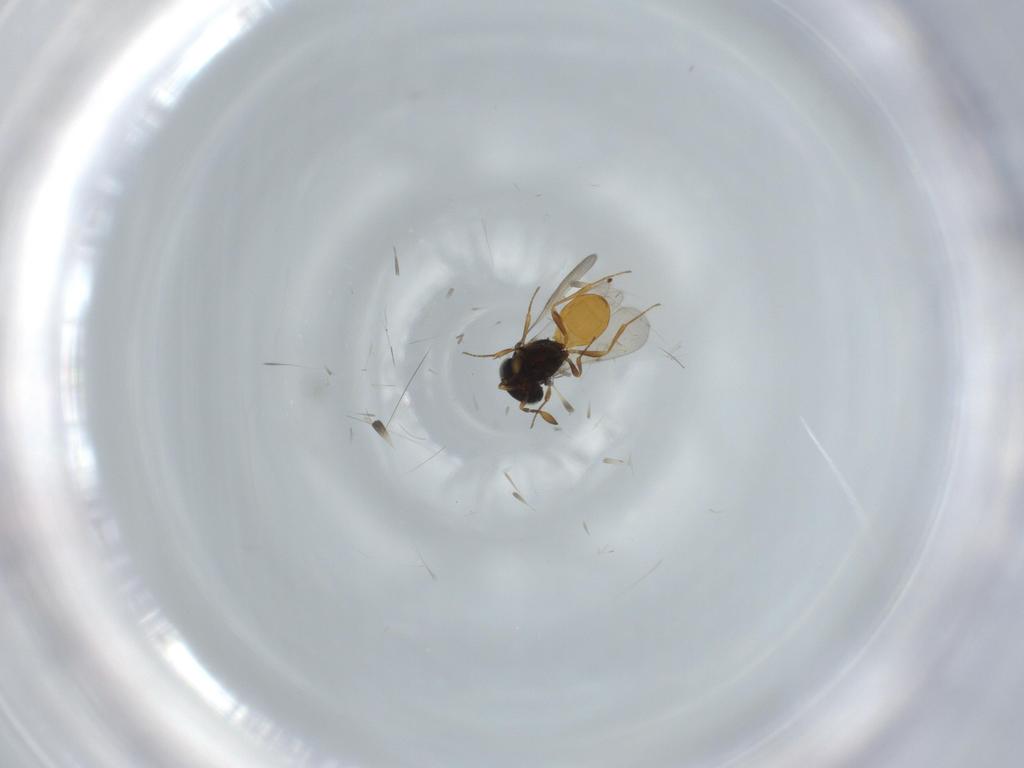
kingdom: Animalia
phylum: Arthropoda
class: Insecta
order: Hymenoptera
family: Scelionidae
